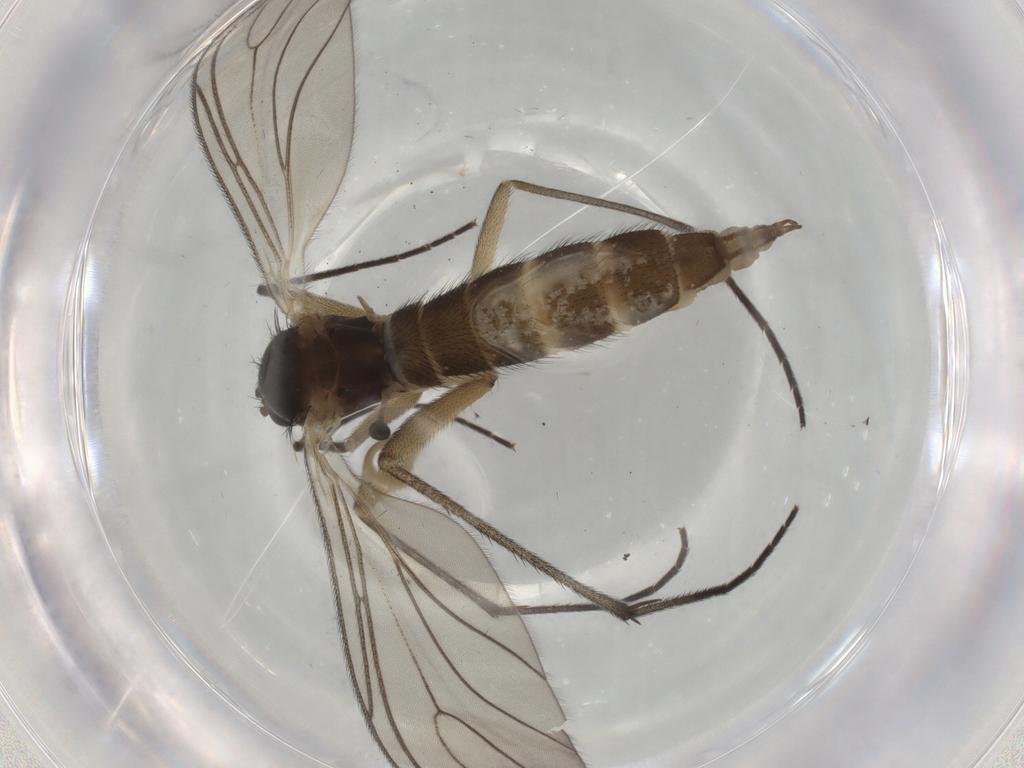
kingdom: Animalia
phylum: Arthropoda
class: Insecta
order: Diptera
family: Sciaridae
